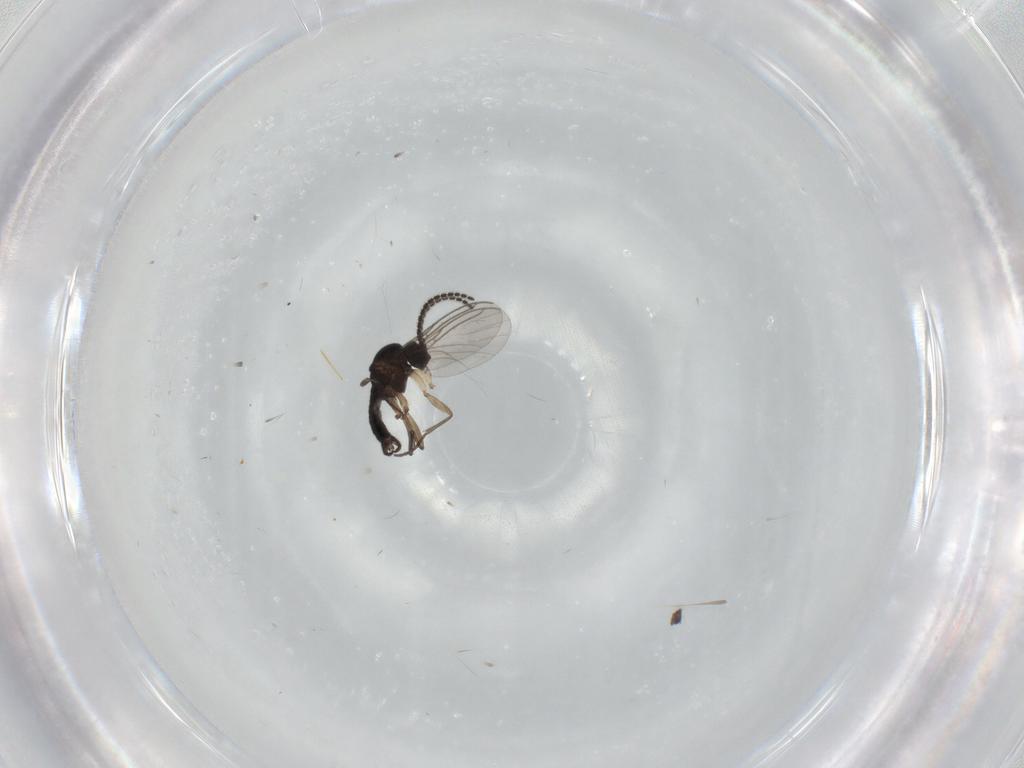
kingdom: Animalia
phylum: Arthropoda
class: Insecta
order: Diptera
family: Sciaridae
